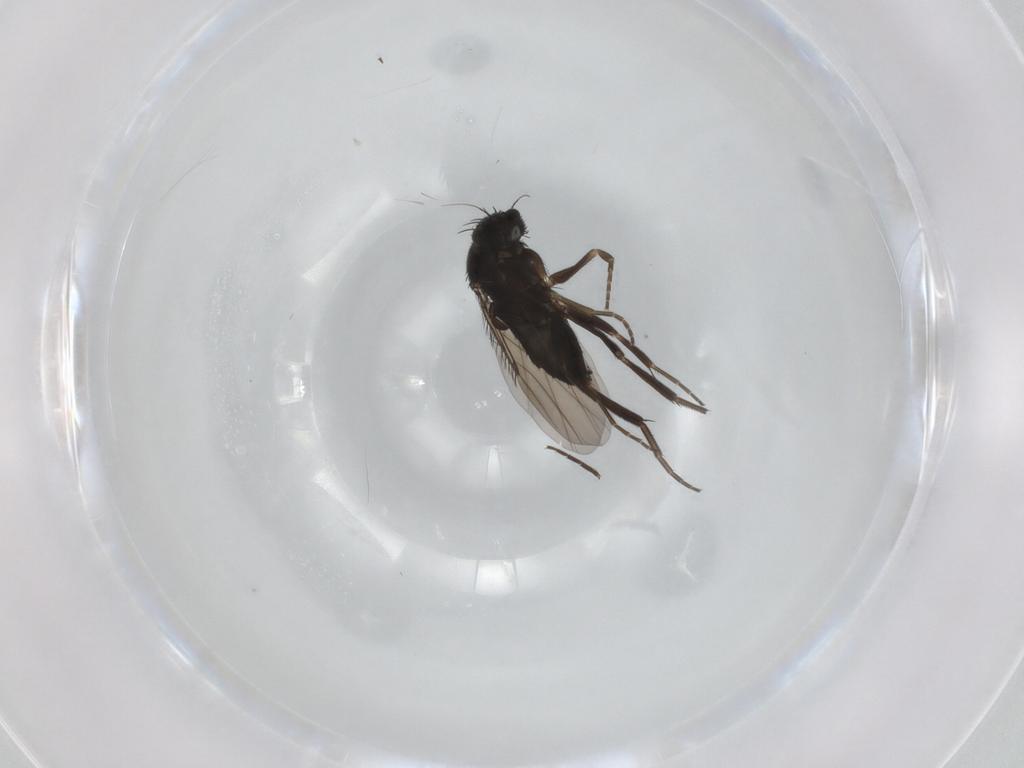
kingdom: Animalia
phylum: Arthropoda
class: Insecta
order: Diptera
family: Phoridae
